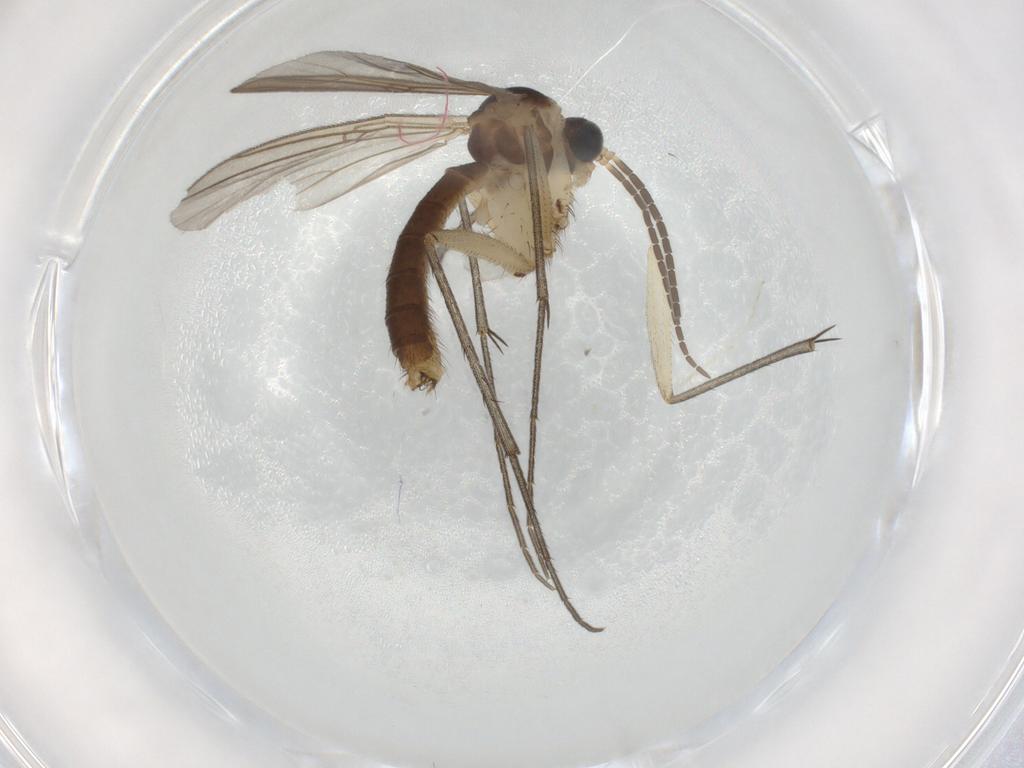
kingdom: Animalia
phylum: Arthropoda
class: Insecta
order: Diptera
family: Mycetophilidae
